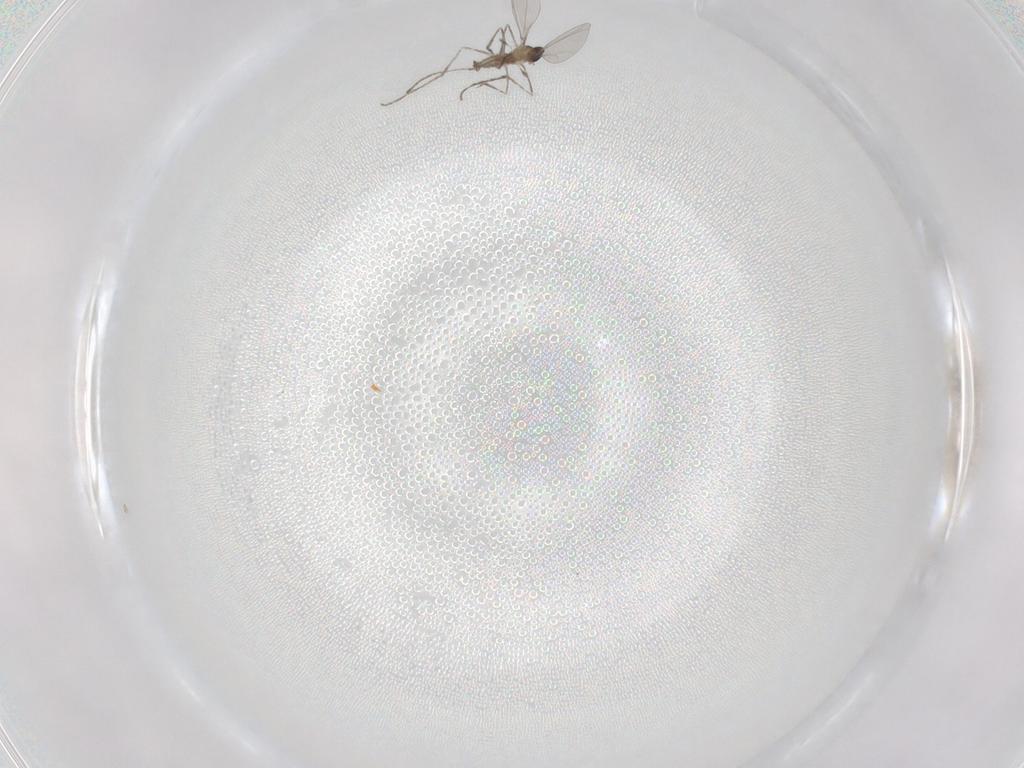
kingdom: Animalia
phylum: Arthropoda
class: Insecta
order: Diptera
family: Cecidomyiidae
